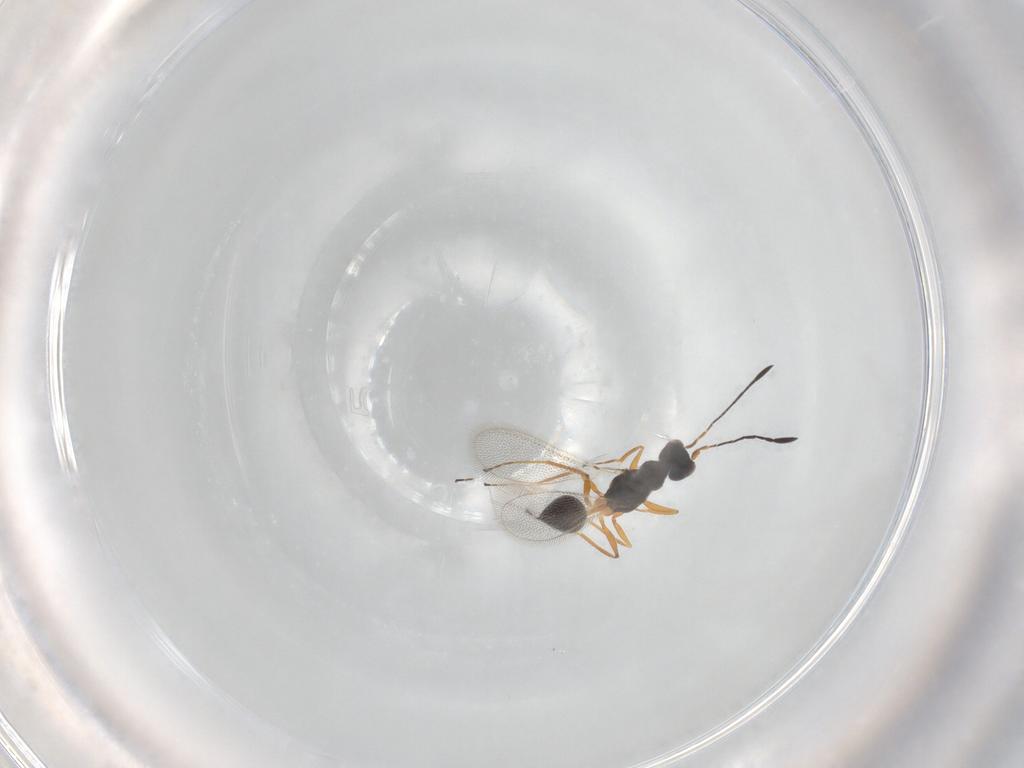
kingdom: Animalia
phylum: Arthropoda
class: Insecta
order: Hymenoptera
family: Mymaridae
